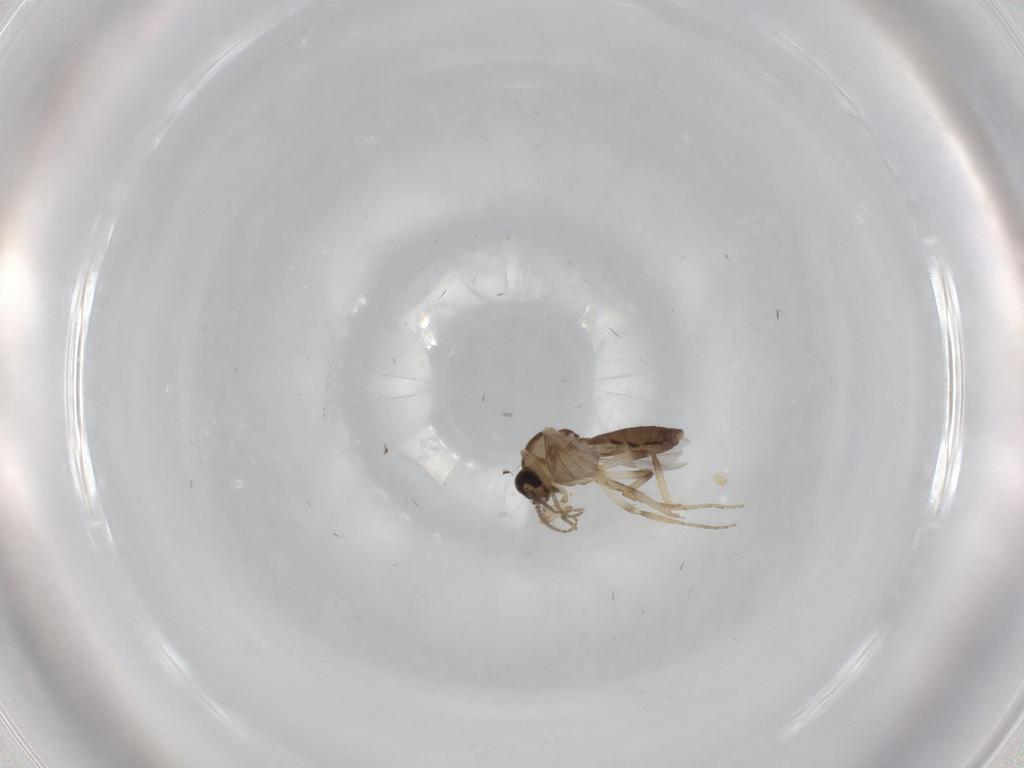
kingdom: Animalia
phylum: Arthropoda
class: Insecta
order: Diptera
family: Ceratopogonidae
